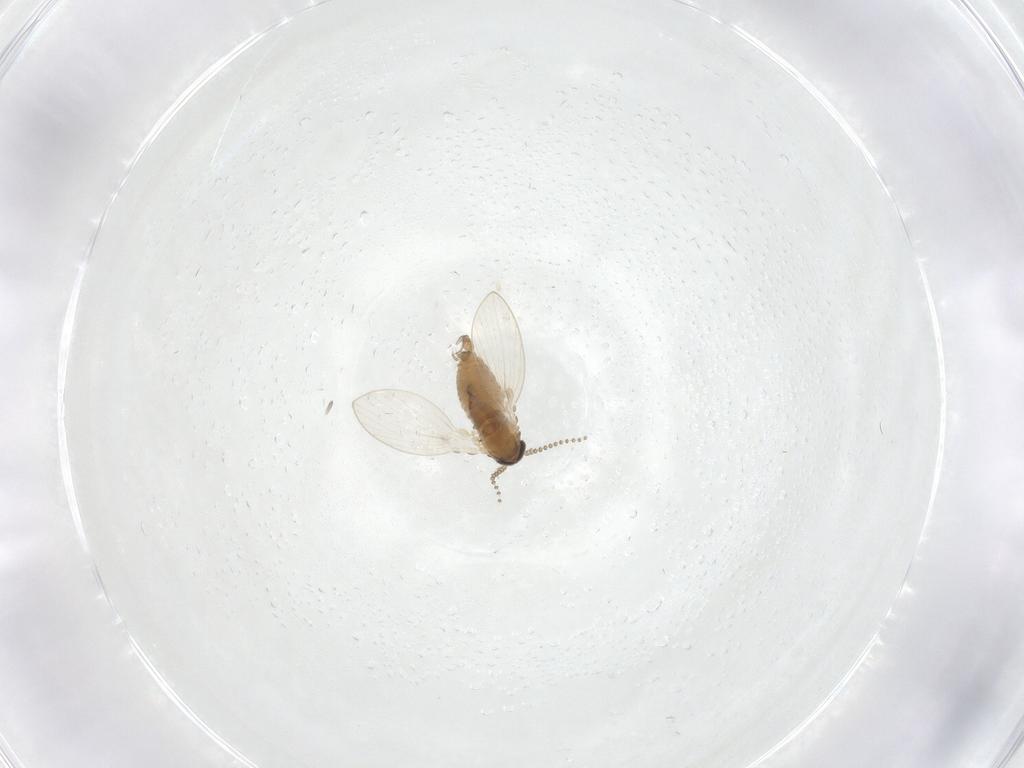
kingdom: Animalia
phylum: Arthropoda
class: Insecta
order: Diptera
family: Psychodidae
